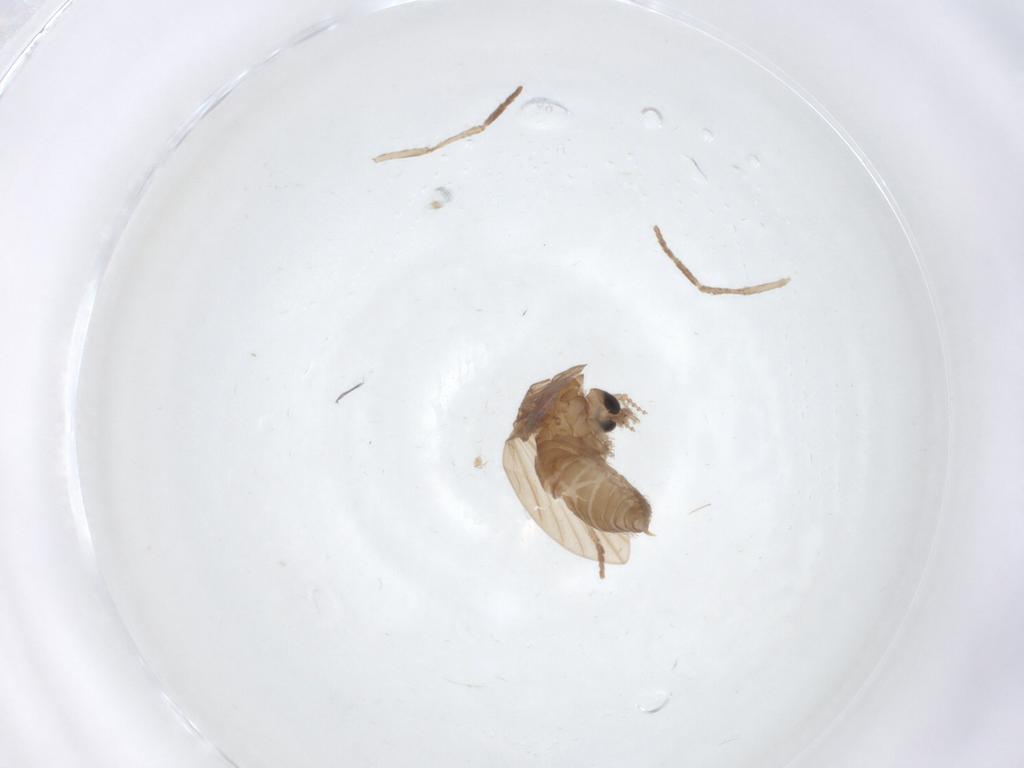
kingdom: Animalia
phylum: Arthropoda
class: Insecta
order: Diptera
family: Psychodidae
